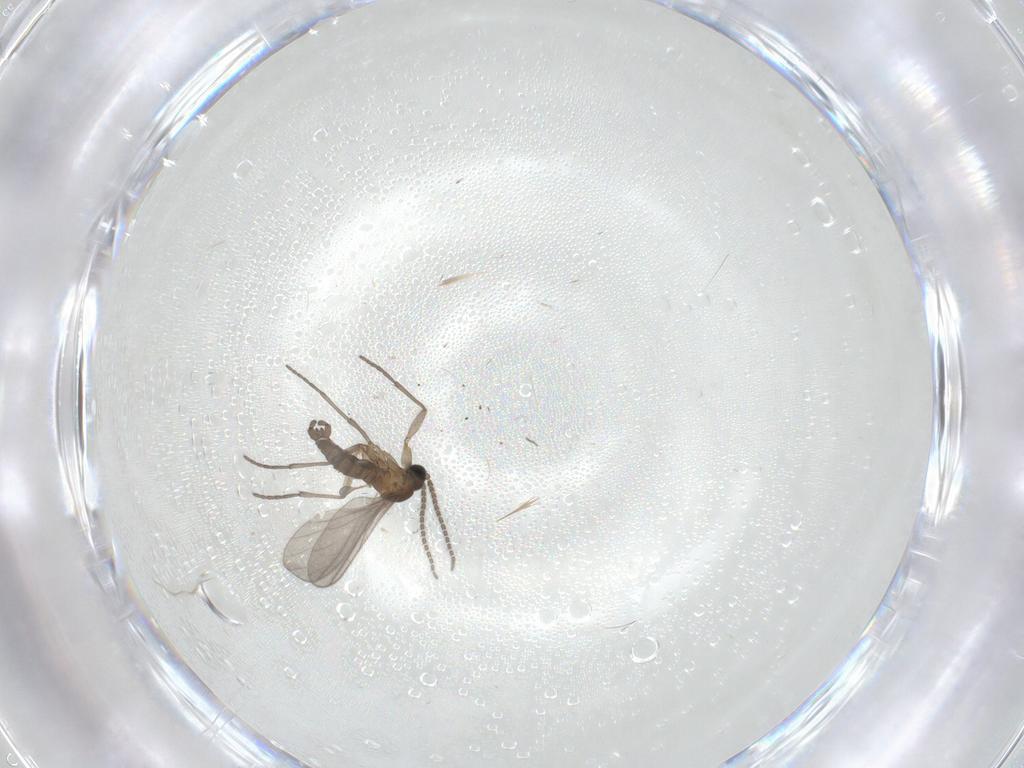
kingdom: Animalia
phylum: Arthropoda
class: Insecta
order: Diptera
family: Sciaridae
